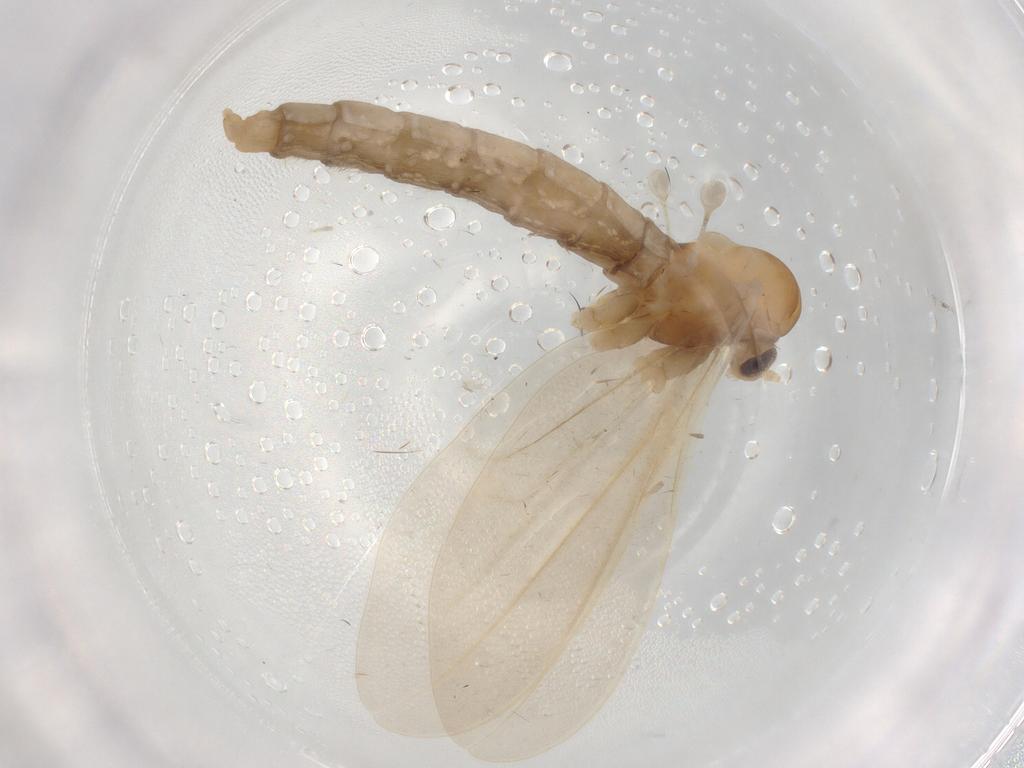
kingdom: Animalia
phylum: Arthropoda
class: Insecta
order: Diptera
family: Cecidomyiidae
